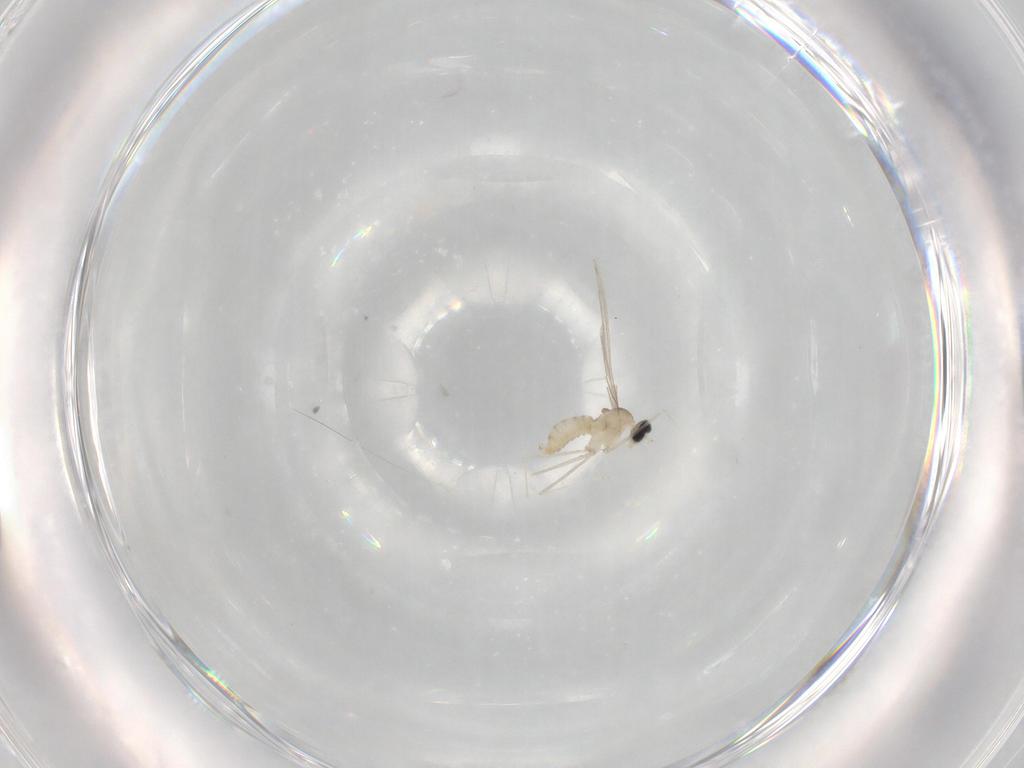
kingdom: Animalia
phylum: Arthropoda
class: Insecta
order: Diptera
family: Cecidomyiidae
